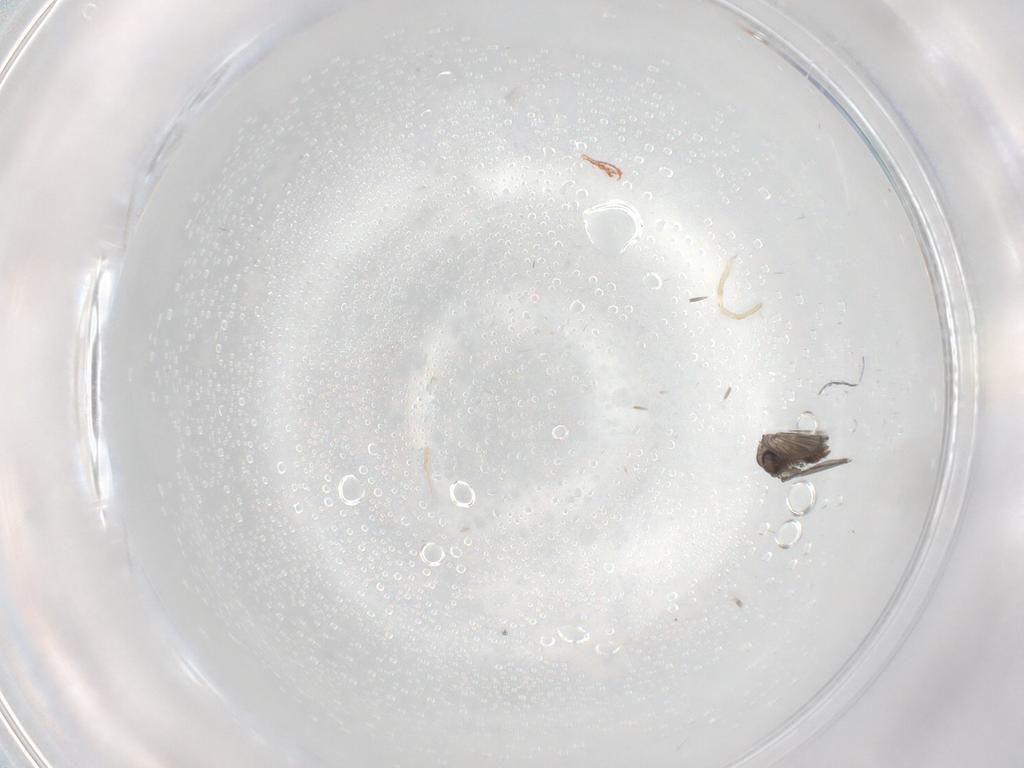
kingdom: Animalia
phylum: Arthropoda
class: Insecta
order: Diptera
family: Psychodidae
